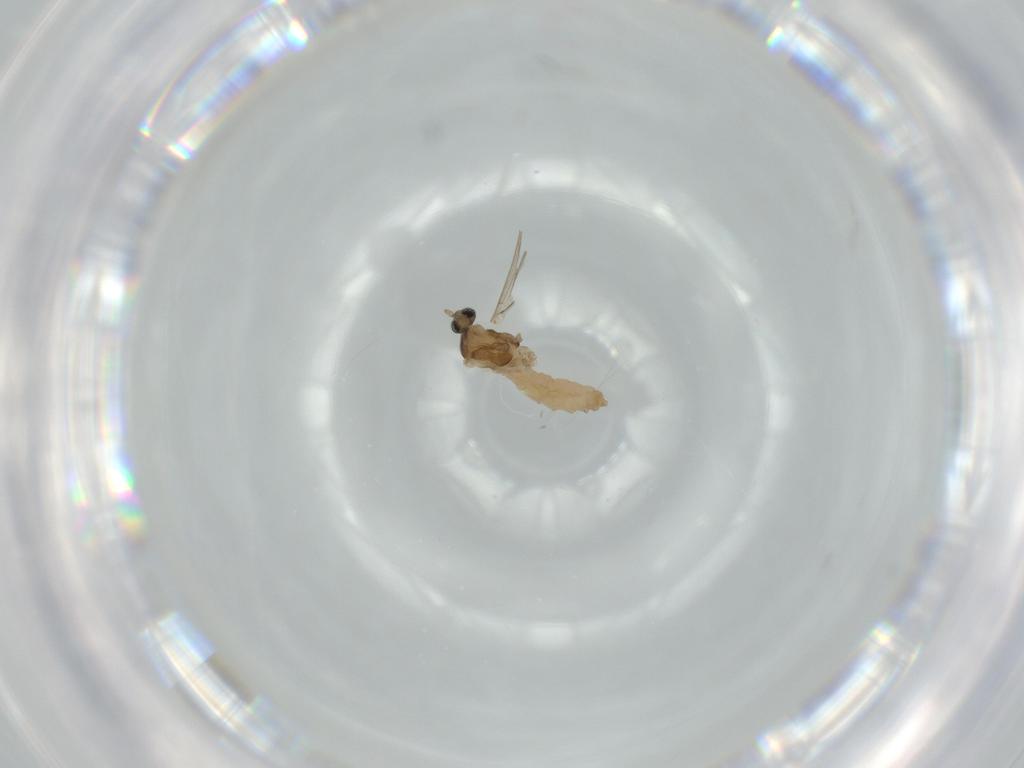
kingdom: Animalia
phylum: Arthropoda
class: Insecta
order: Diptera
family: Cecidomyiidae
